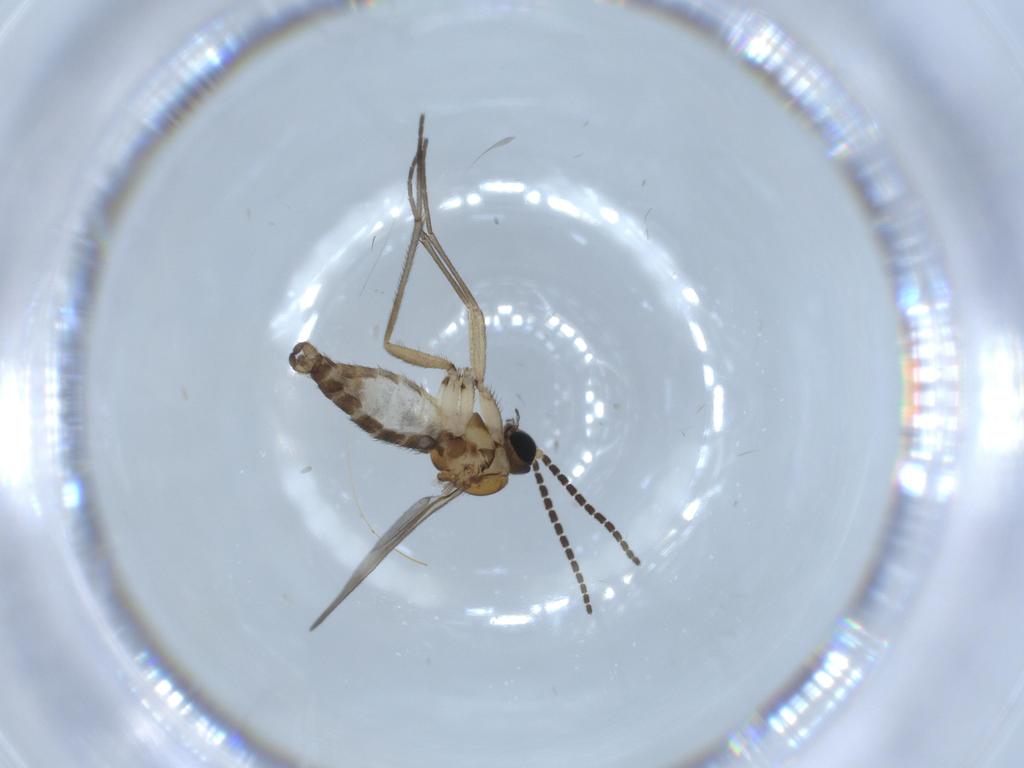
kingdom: Animalia
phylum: Arthropoda
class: Insecta
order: Diptera
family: Sciaridae
